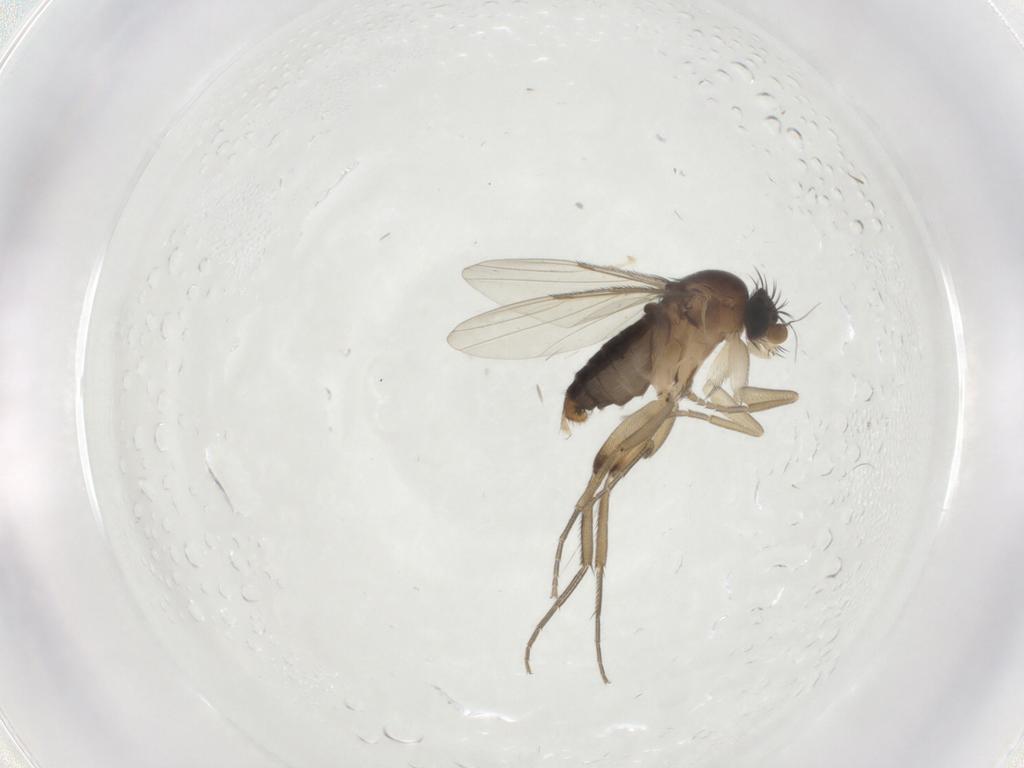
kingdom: Animalia
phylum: Arthropoda
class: Insecta
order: Diptera
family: Phoridae
